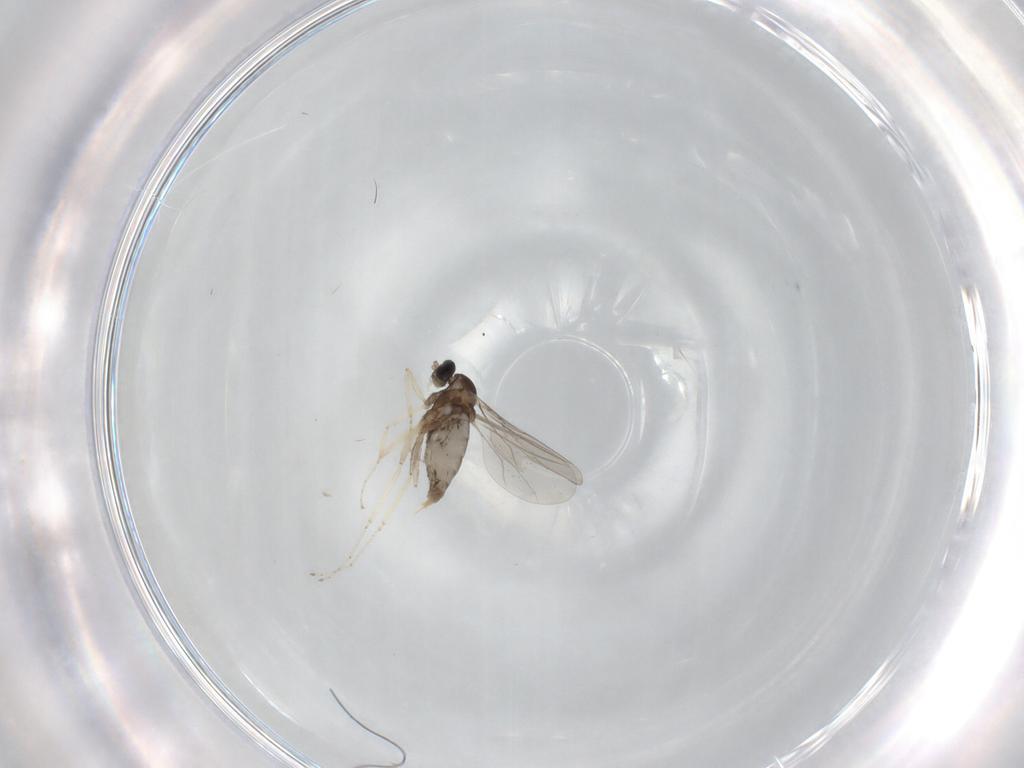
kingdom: Animalia
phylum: Arthropoda
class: Insecta
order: Diptera
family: Cecidomyiidae
